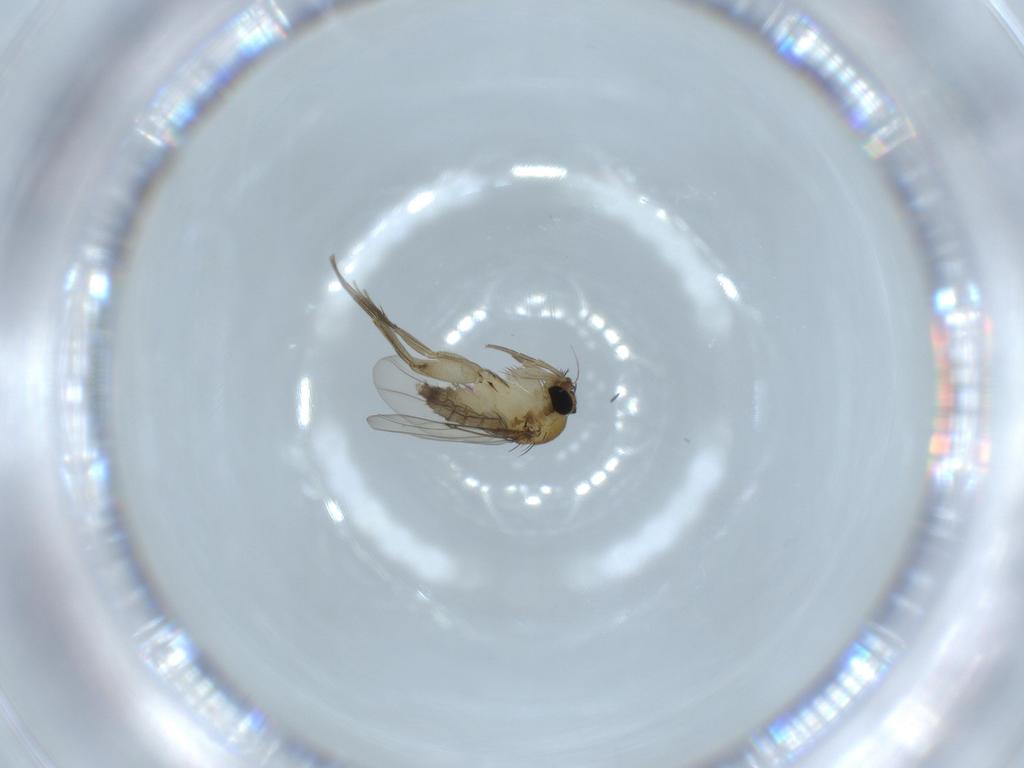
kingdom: Animalia
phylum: Arthropoda
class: Insecta
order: Diptera
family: Phoridae
